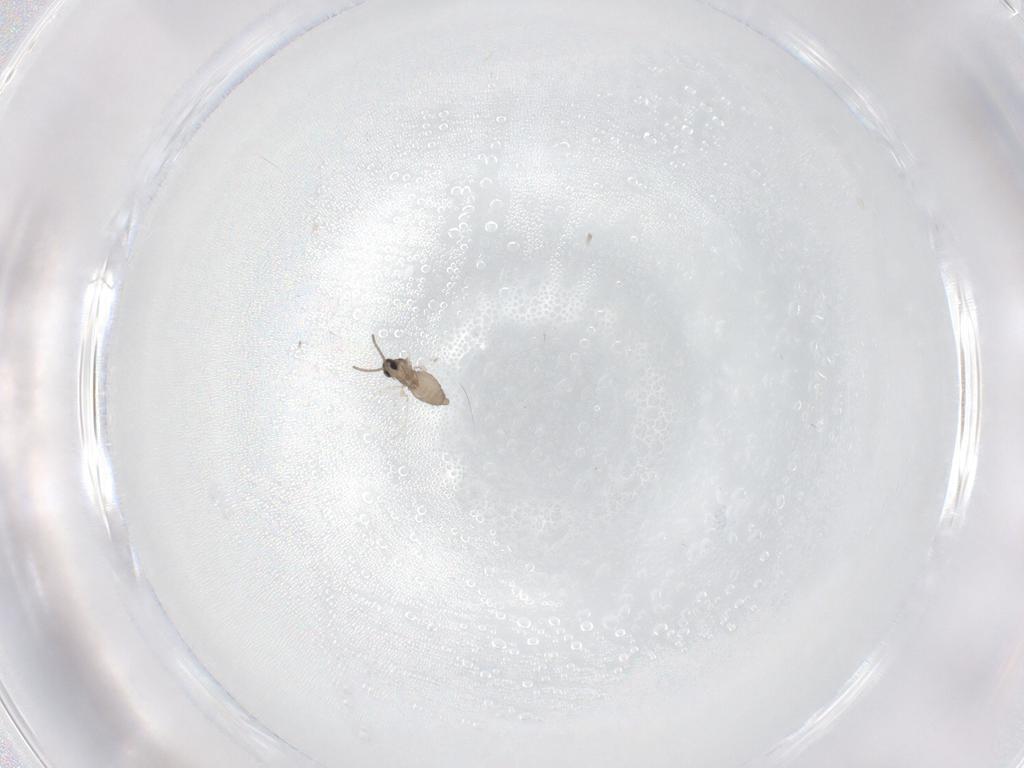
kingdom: Animalia
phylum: Arthropoda
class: Insecta
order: Diptera
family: Cecidomyiidae
